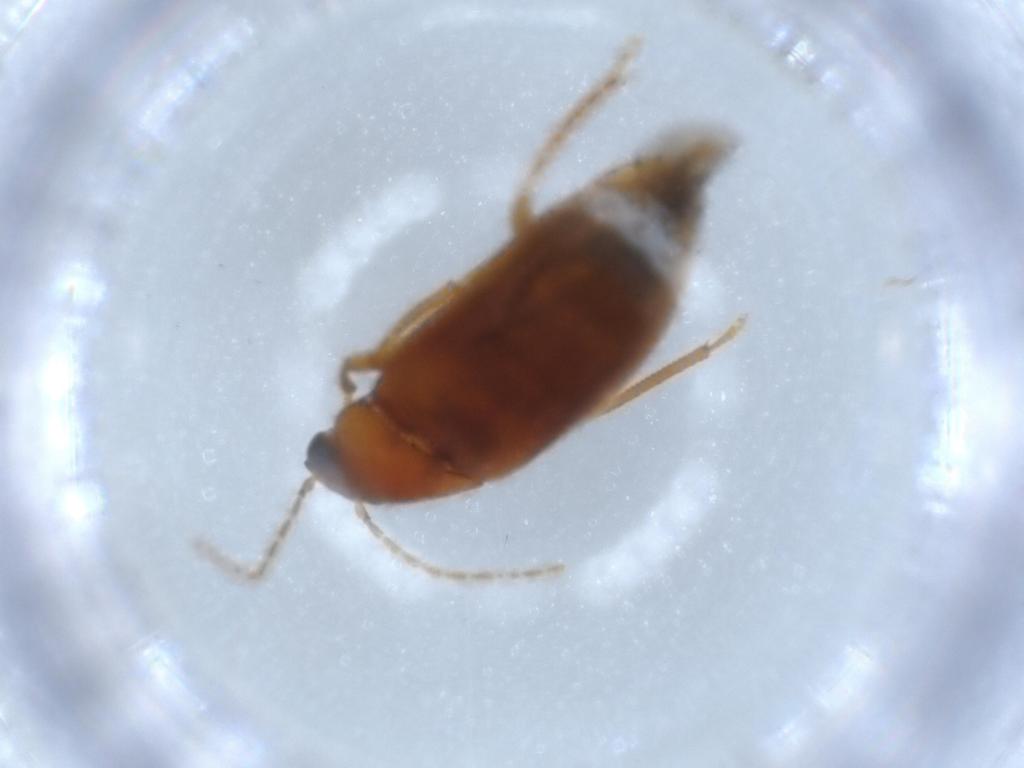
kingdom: Animalia
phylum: Arthropoda
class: Insecta
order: Coleoptera
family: Ptilodactylidae
